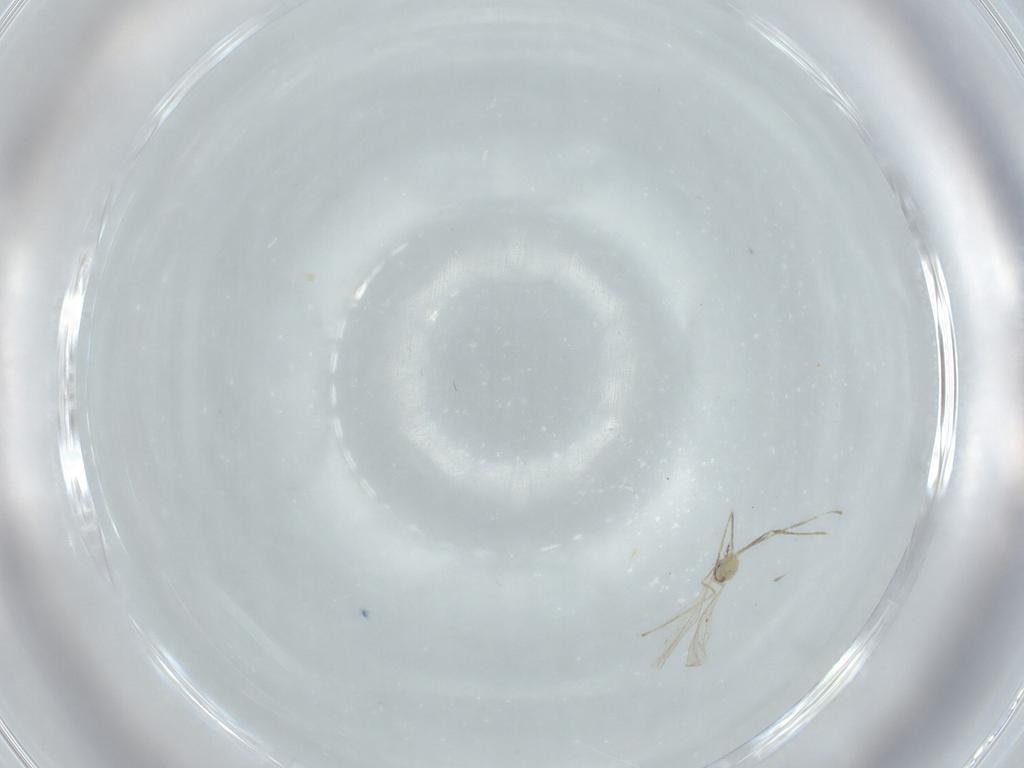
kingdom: Animalia
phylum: Arthropoda
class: Insecta
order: Diptera
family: Cecidomyiidae
